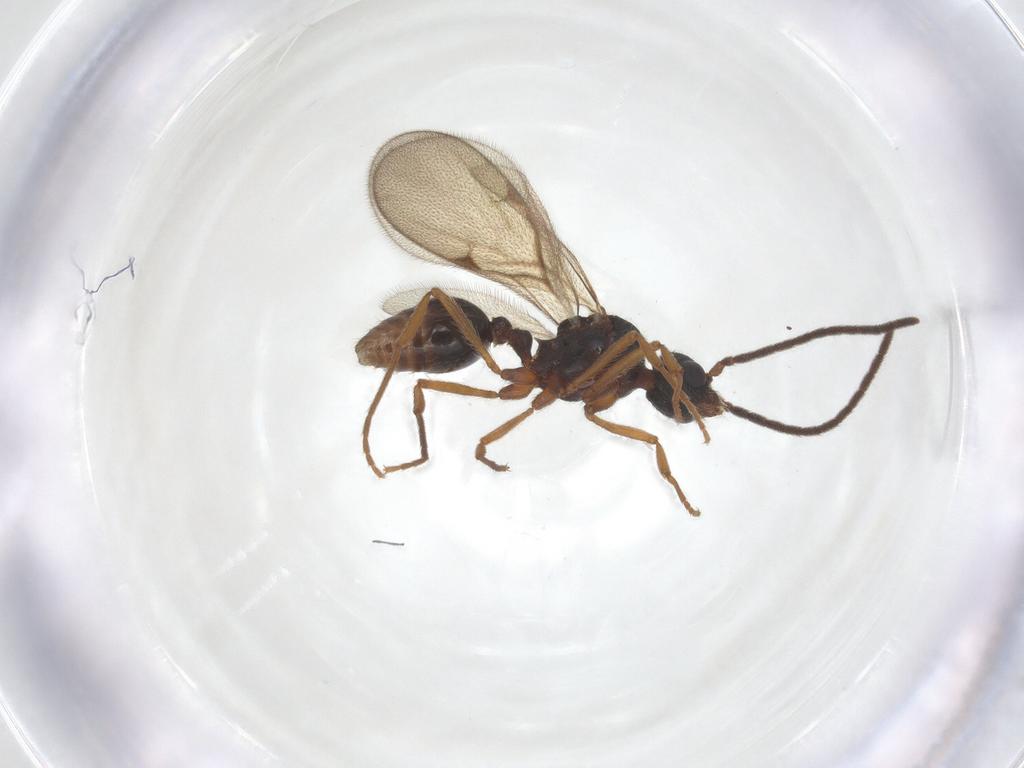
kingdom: Animalia
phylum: Arthropoda
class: Insecta
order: Hymenoptera
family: Formicidae
